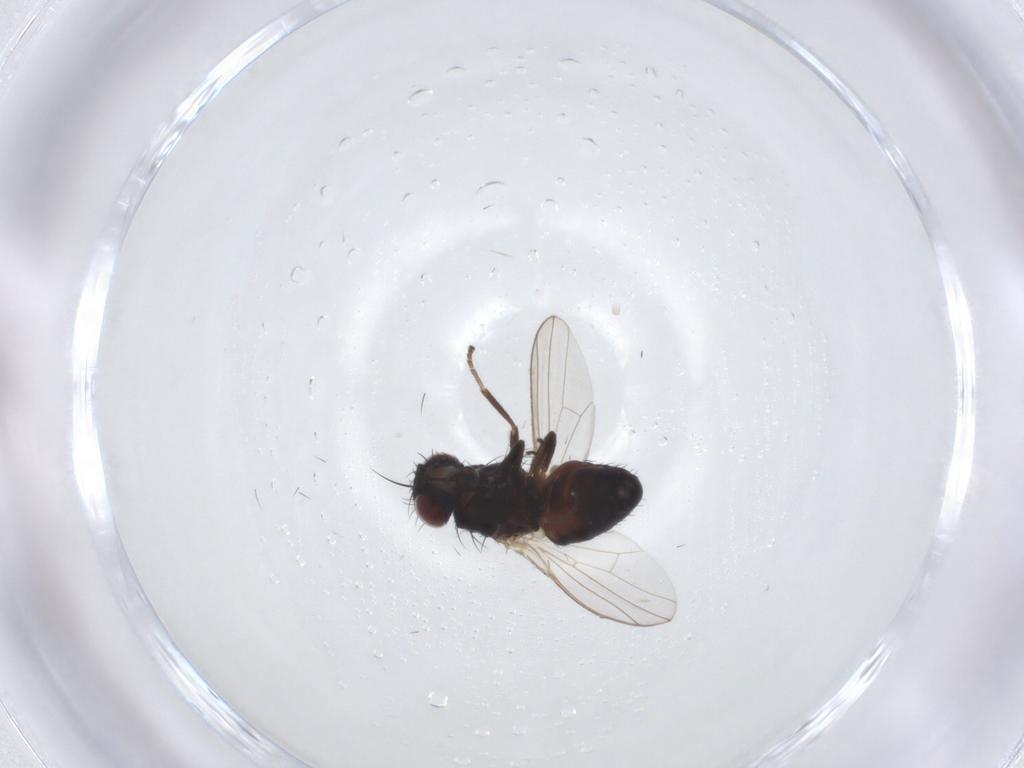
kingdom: Animalia
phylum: Arthropoda
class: Insecta
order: Diptera
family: Carnidae
